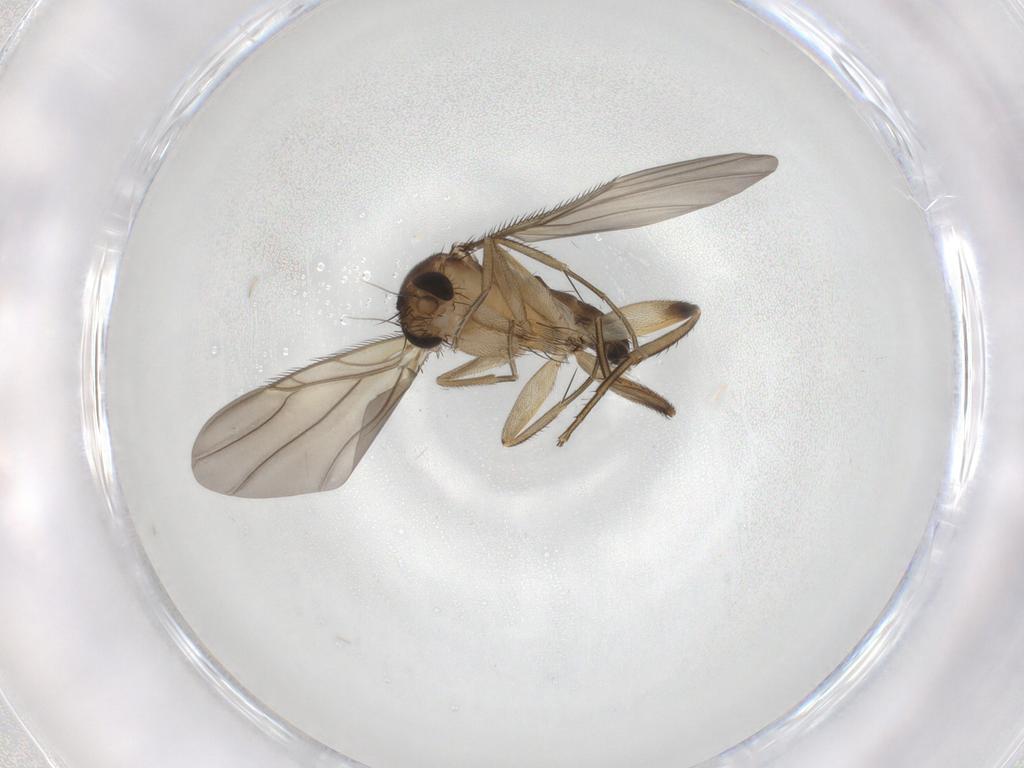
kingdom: Animalia
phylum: Arthropoda
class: Insecta
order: Diptera
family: Phoridae
